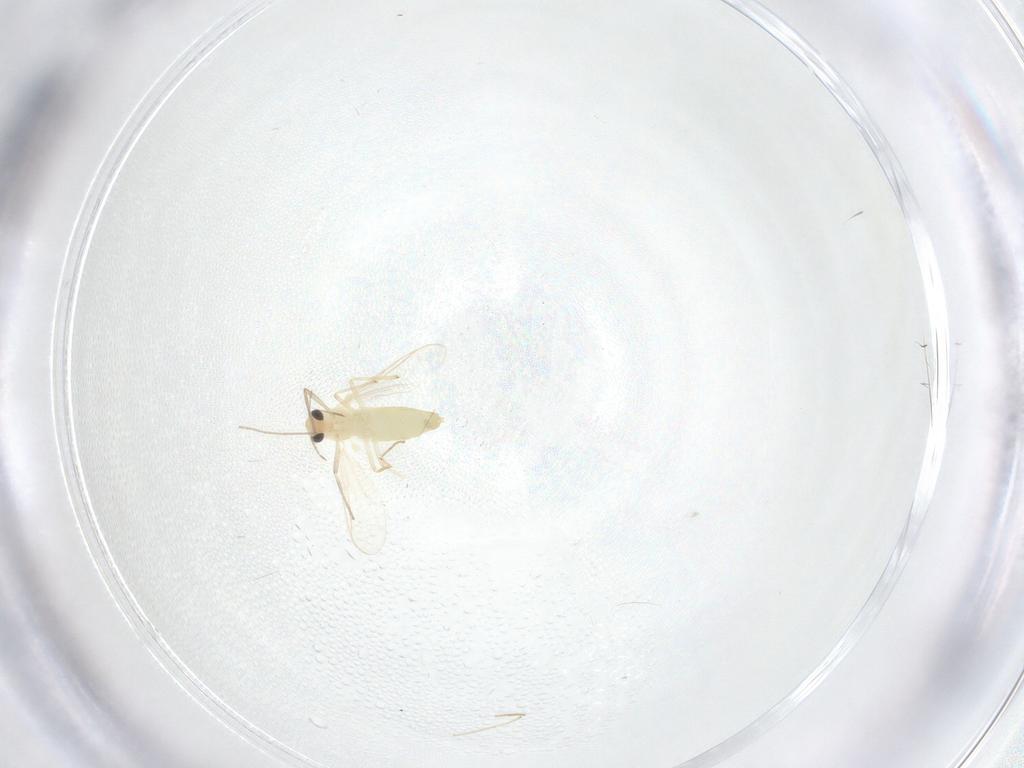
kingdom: Animalia
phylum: Arthropoda
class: Insecta
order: Diptera
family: Chironomidae
